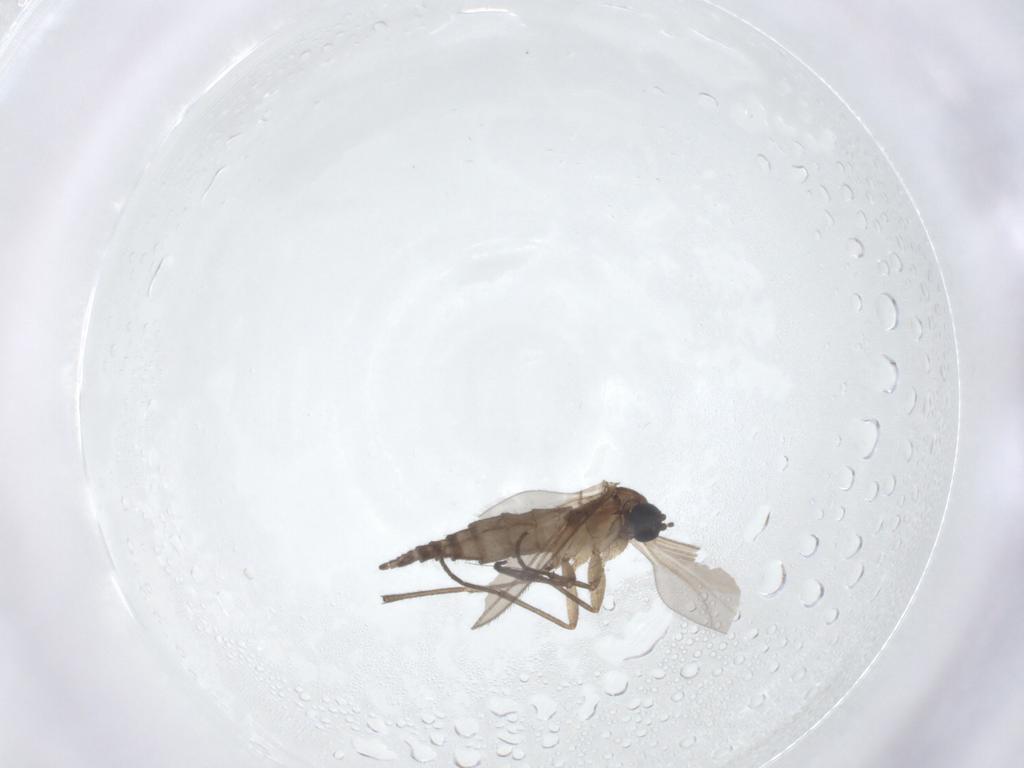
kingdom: Animalia
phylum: Arthropoda
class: Insecta
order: Diptera
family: Sciaridae
